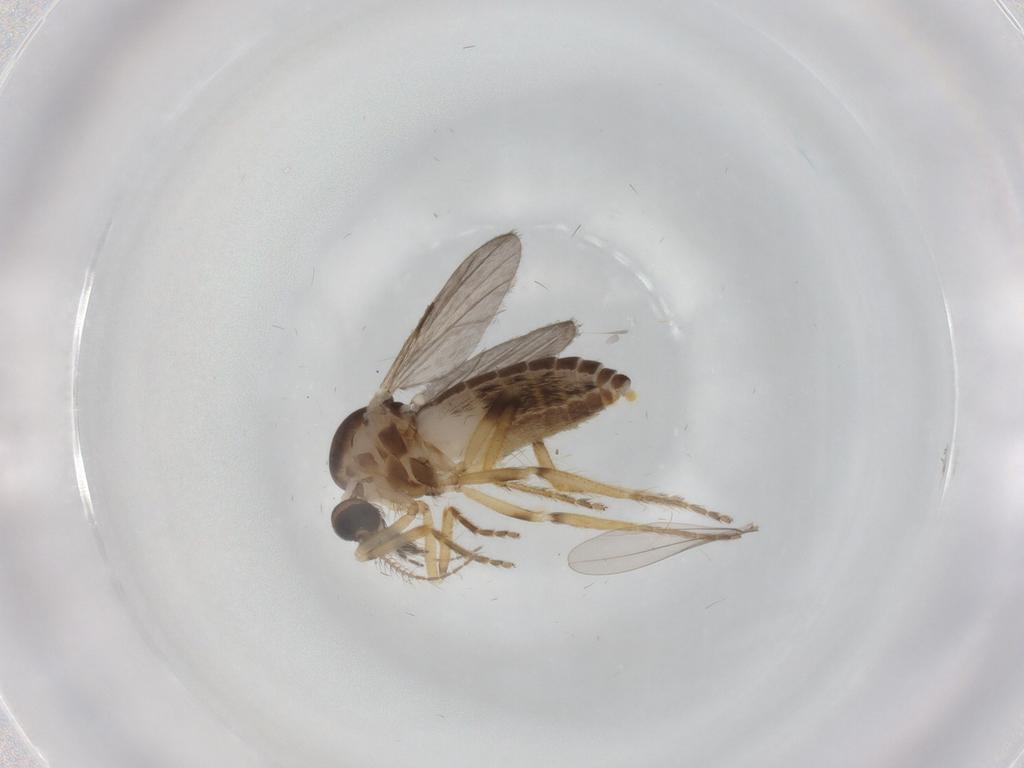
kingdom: Animalia
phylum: Arthropoda
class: Insecta
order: Diptera
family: Ceratopogonidae
